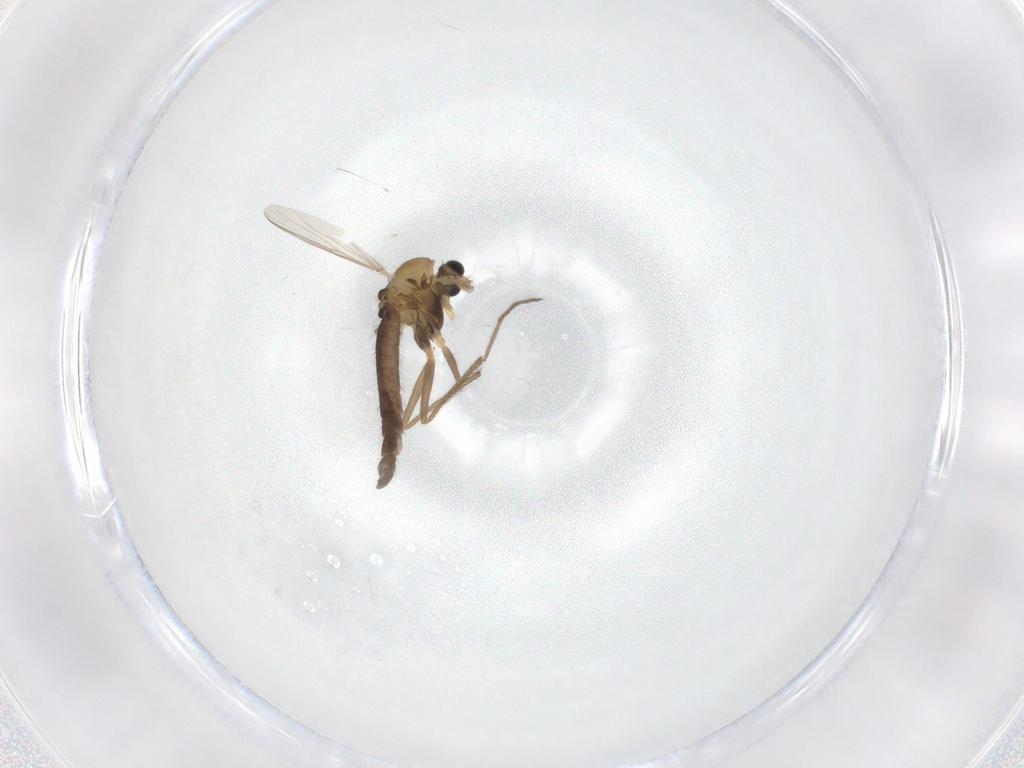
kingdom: Animalia
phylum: Arthropoda
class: Insecta
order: Diptera
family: Chironomidae
